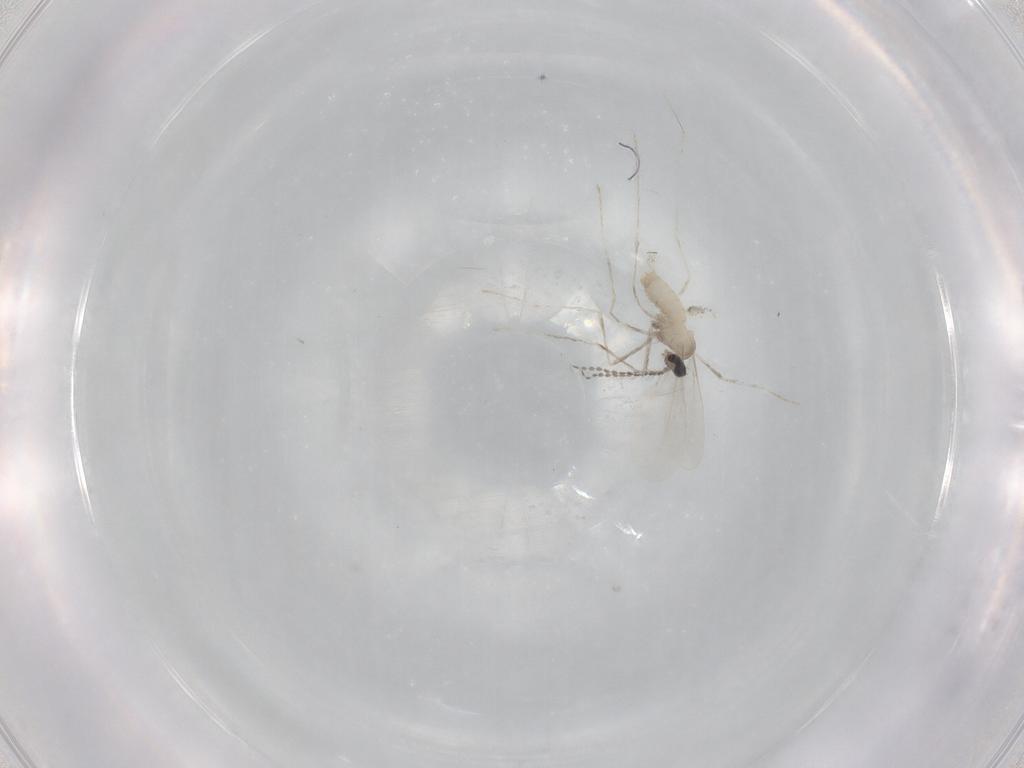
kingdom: Animalia
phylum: Arthropoda
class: Insecta
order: Diptera
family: Cecidomyiidae
